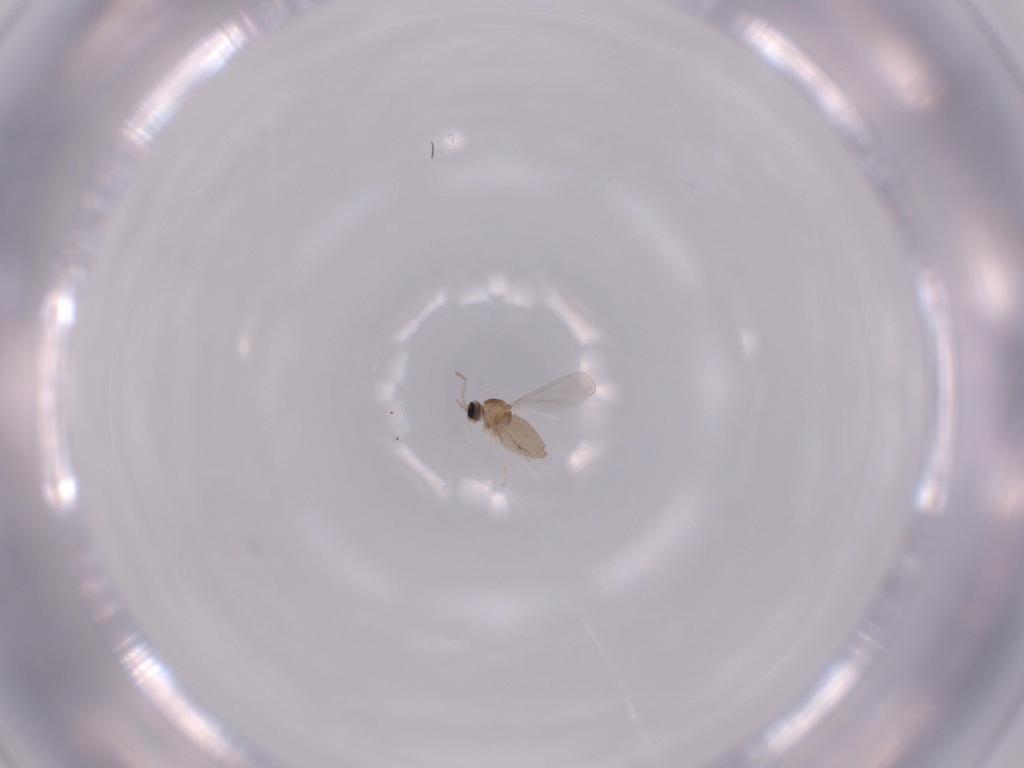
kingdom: Animalia
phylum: Arthropoda
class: Insecta
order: Diptera
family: Cecidomyiidae
